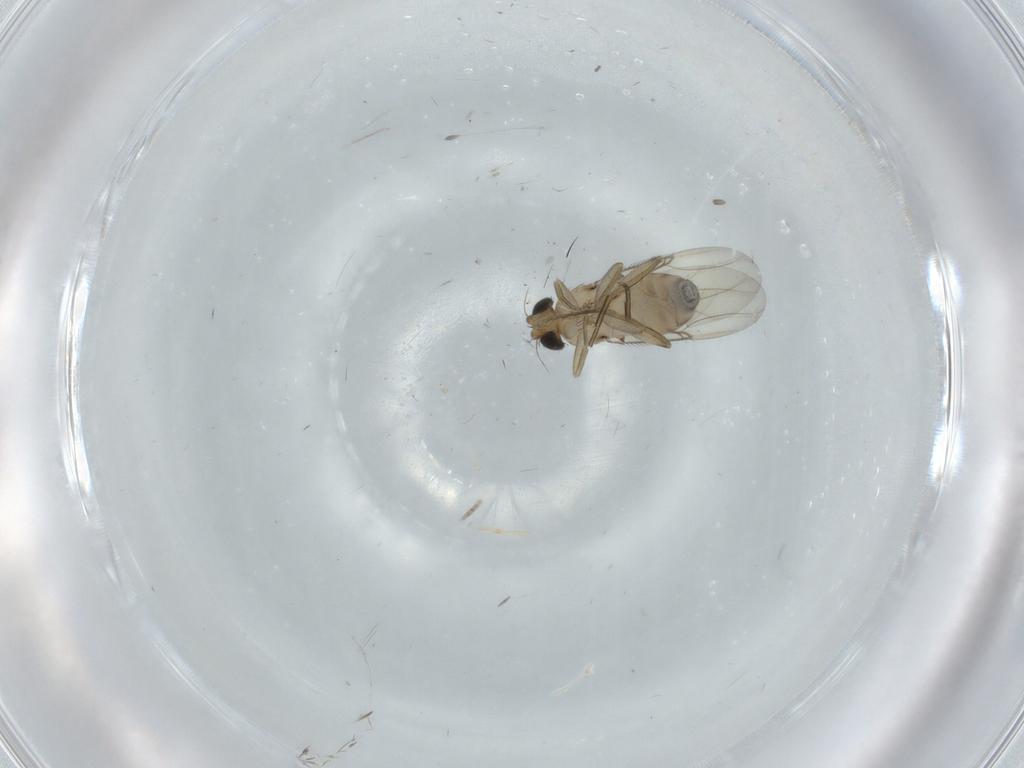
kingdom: Animalia
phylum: Arthropoda
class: Insecta
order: Diptera
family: Phoridae
